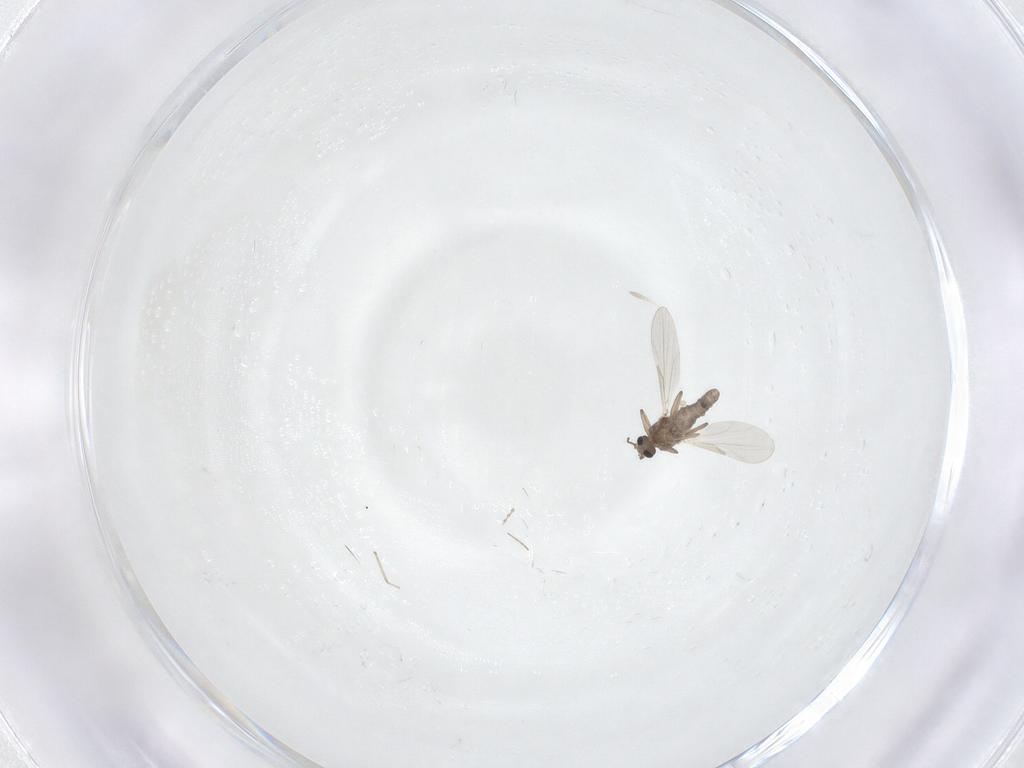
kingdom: Animalia
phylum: Arthropoda
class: Insecta
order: Diptera
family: Cecidomyiidae
